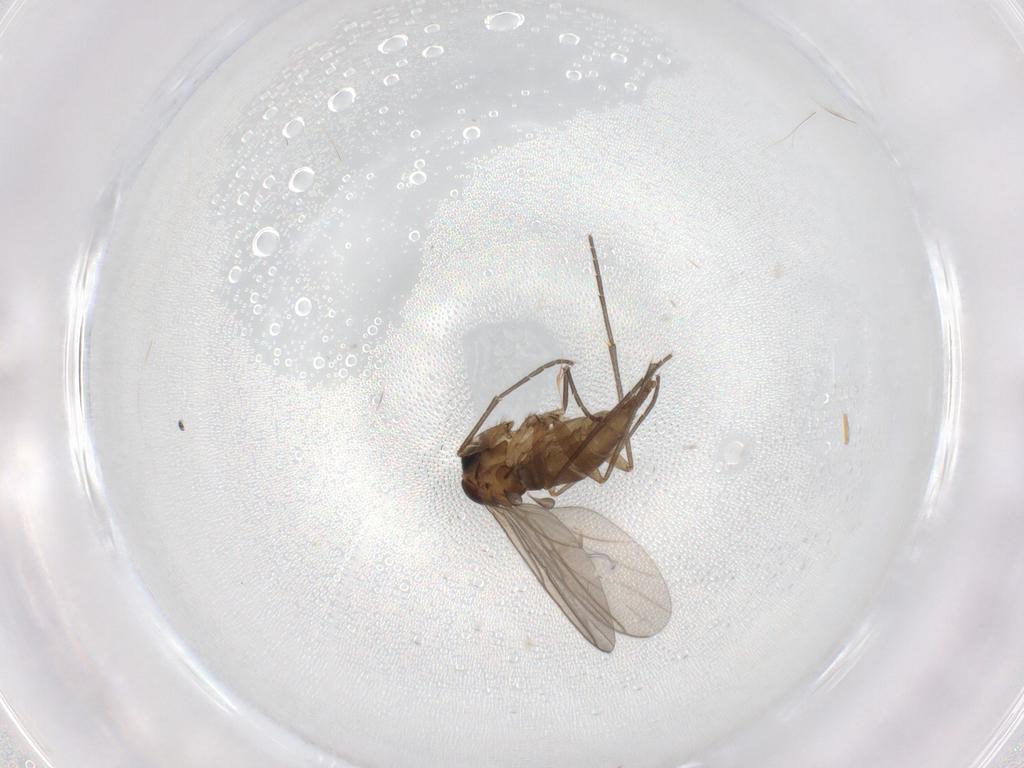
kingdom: Animalia
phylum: Arthropoda
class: Insecta
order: Diptera
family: Sciaridae
